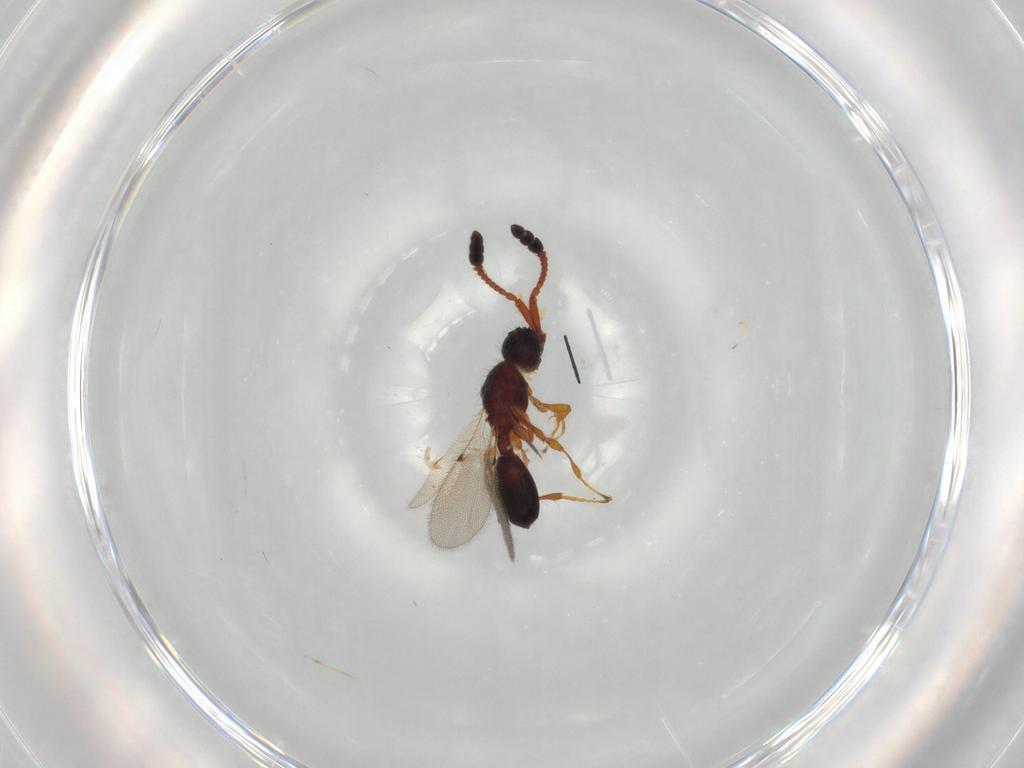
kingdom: Animalia
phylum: Arthropoda
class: Insecta
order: Hymenoptera
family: Diapriidae
